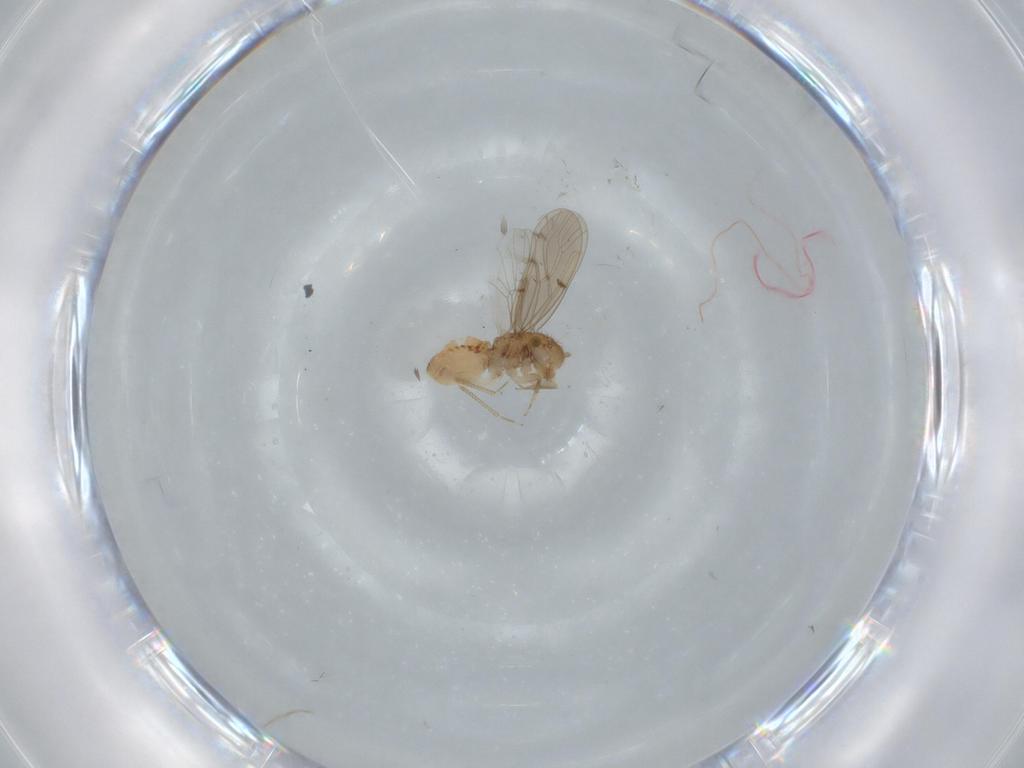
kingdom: Animalia
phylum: Arthropoda
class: Insecta
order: Psocodea
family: Ectopsocidae
